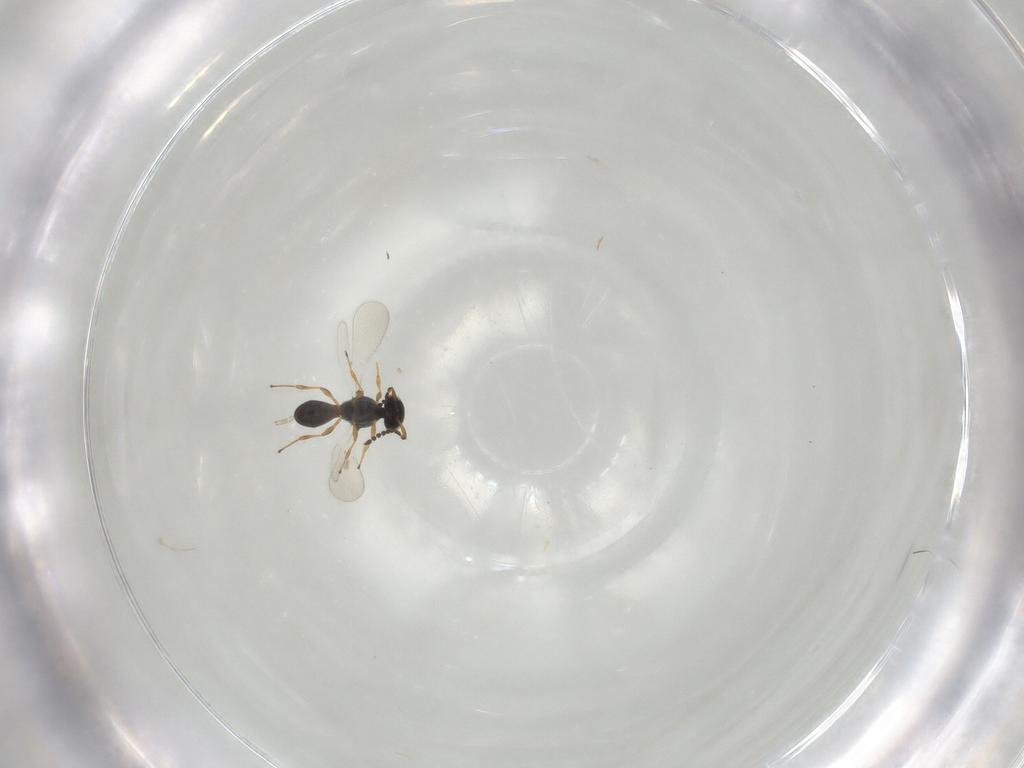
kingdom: Animalia
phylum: Arthropoda
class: Insecta
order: Hymenoptera
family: Platygastridae
